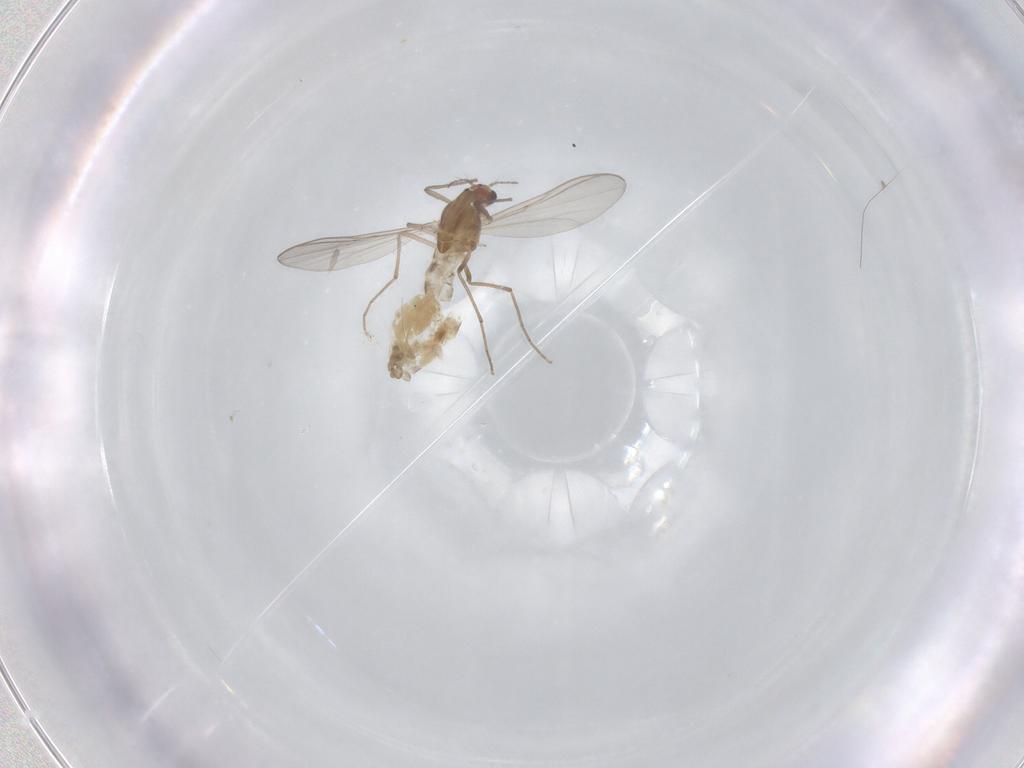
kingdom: Animalia
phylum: Arthropoda
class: Insecta
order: Diptera
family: Chironomidae
